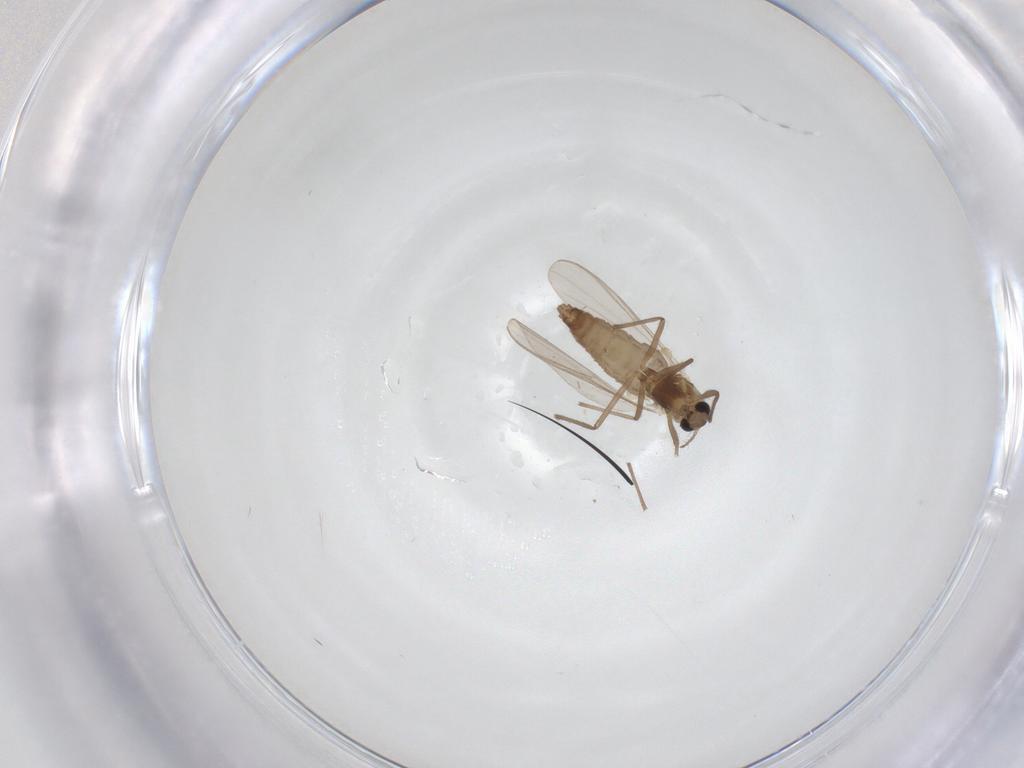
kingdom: Animalia
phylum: Arthropoda
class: Insecta
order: Diptera
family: Chironomidae
